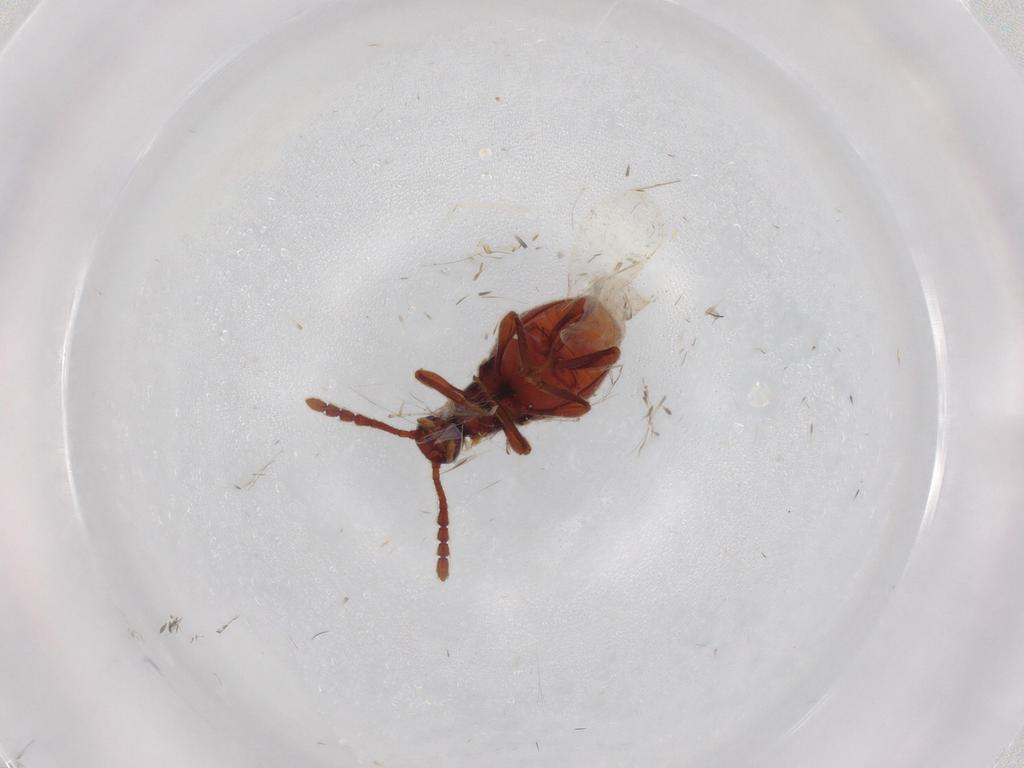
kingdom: Animalia
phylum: Arthropoda
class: Insecta
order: Coleoptera
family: Staphylinidae
